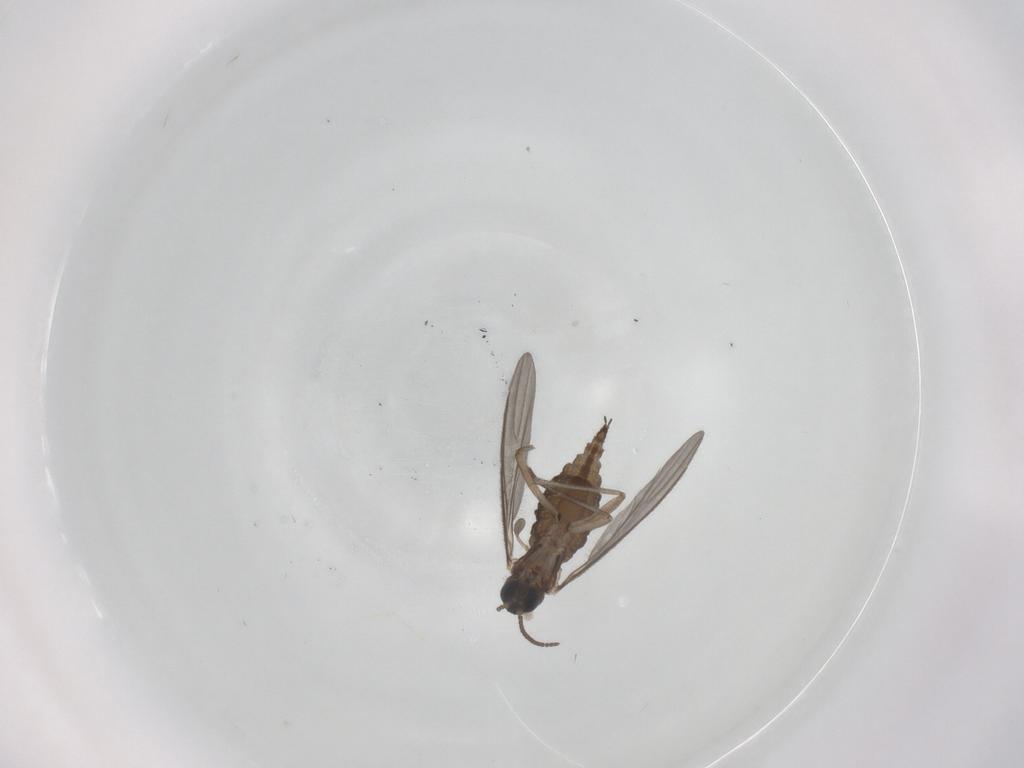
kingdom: Animalia
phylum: Arthropoda
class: Insecta
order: Diptera
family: Sciaridae
